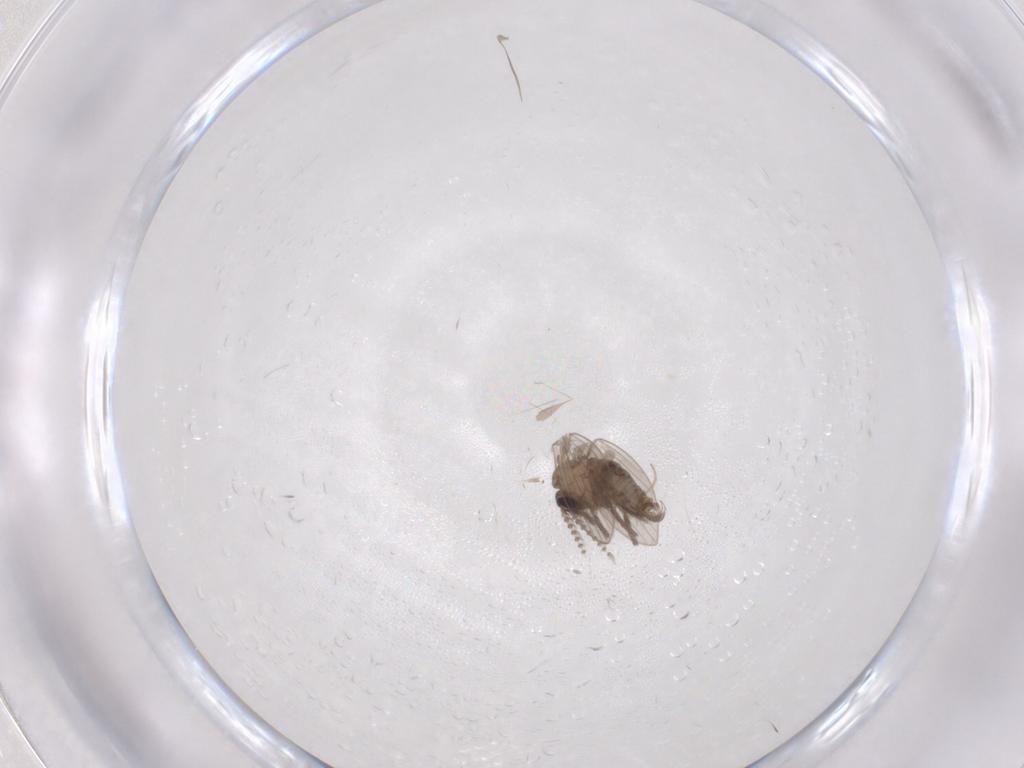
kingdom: Animalia
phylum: Arthropoda
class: Insecta
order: Diptera
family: Psychodidae
